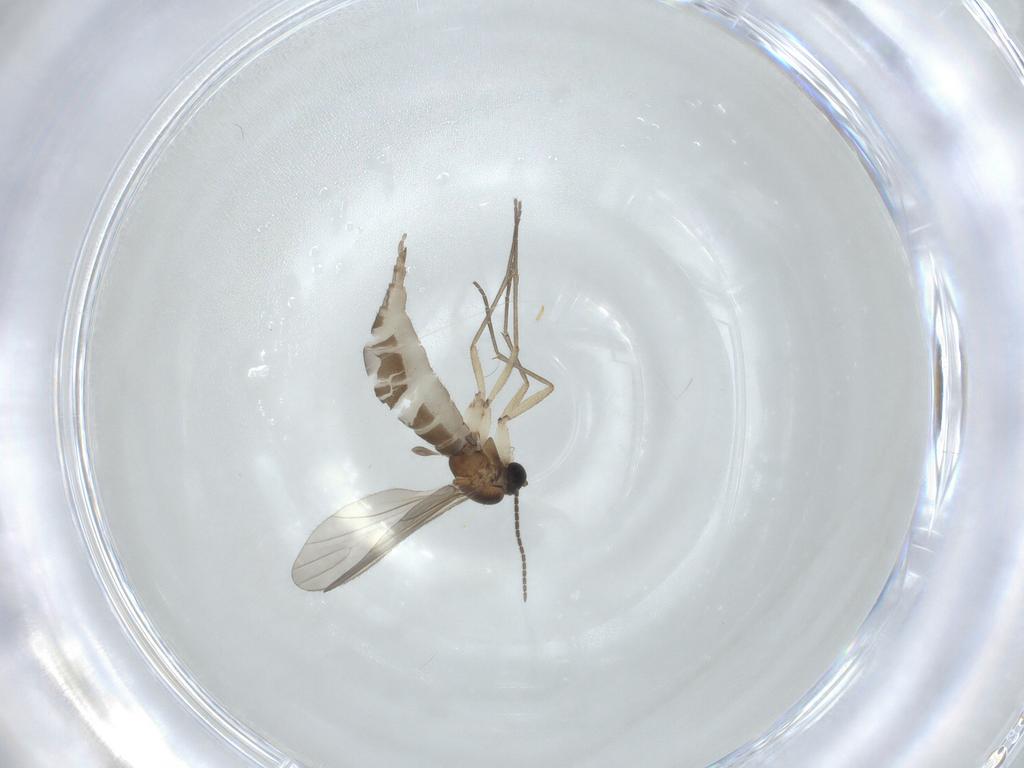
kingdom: Animalia
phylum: Arthropoda
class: Insecta
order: Diptera
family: Sciaridae
